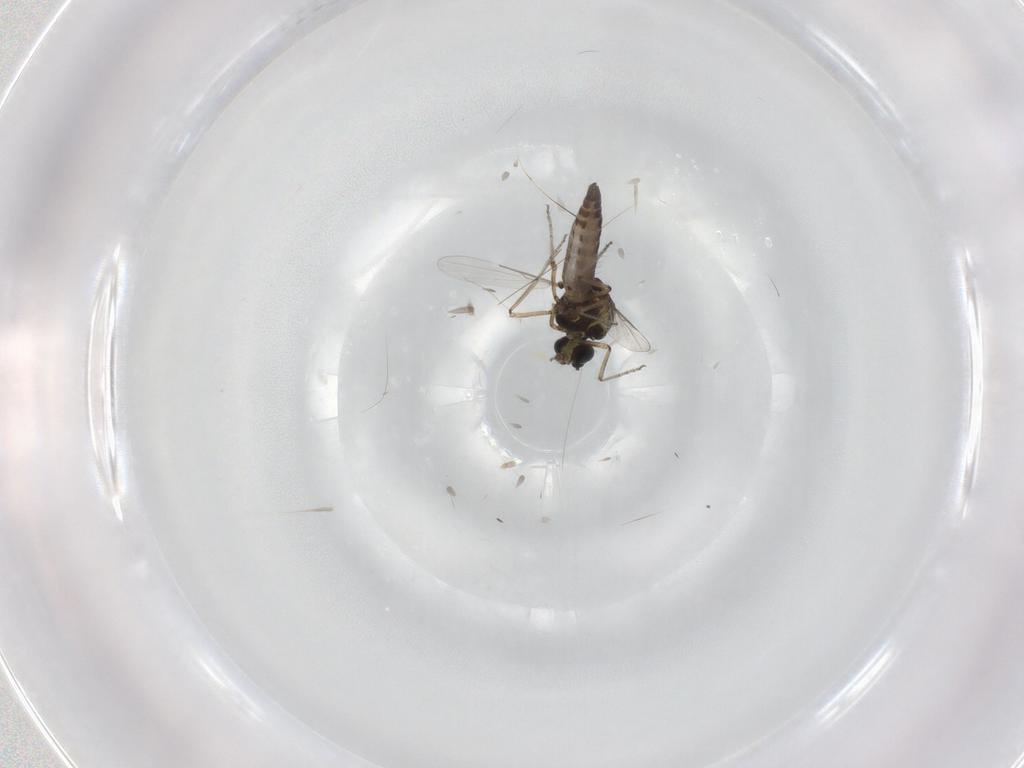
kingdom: Animalia
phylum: Arthropoda
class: Insecta
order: Diptera
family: Ceratopogonidae
